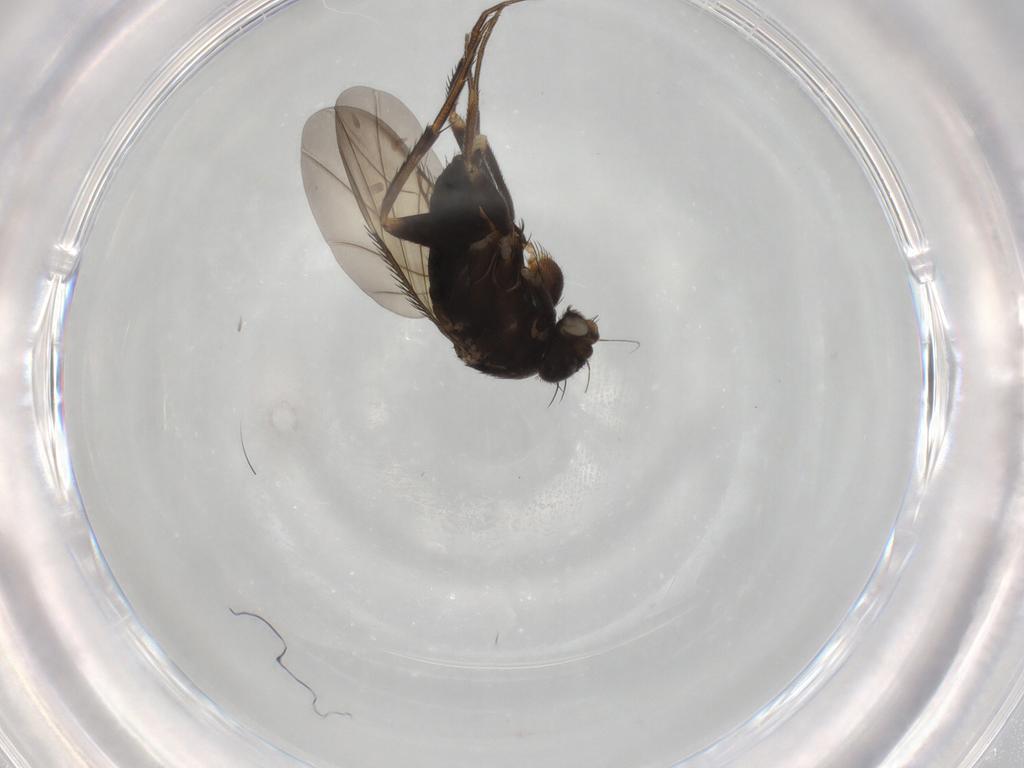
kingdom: Animalia
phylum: Arthropoda
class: Insecta
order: Diptera
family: Phoridae
